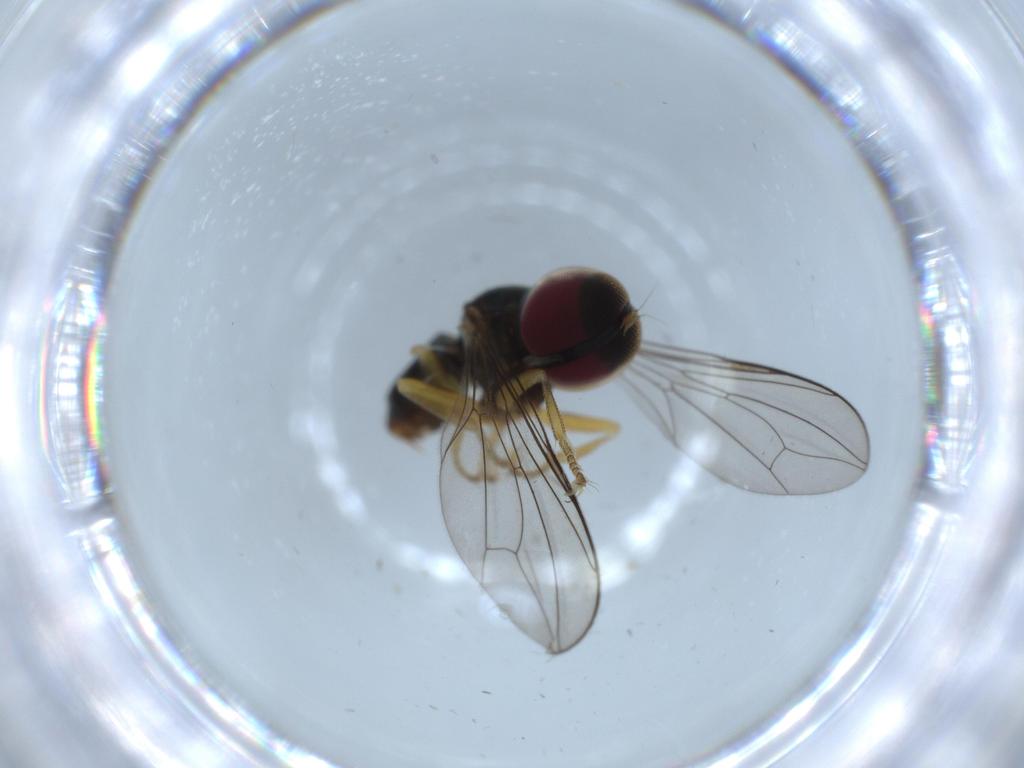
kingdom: Animalia
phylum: Arthropoda
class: Insecta
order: Diptera
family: Pipunculidae
